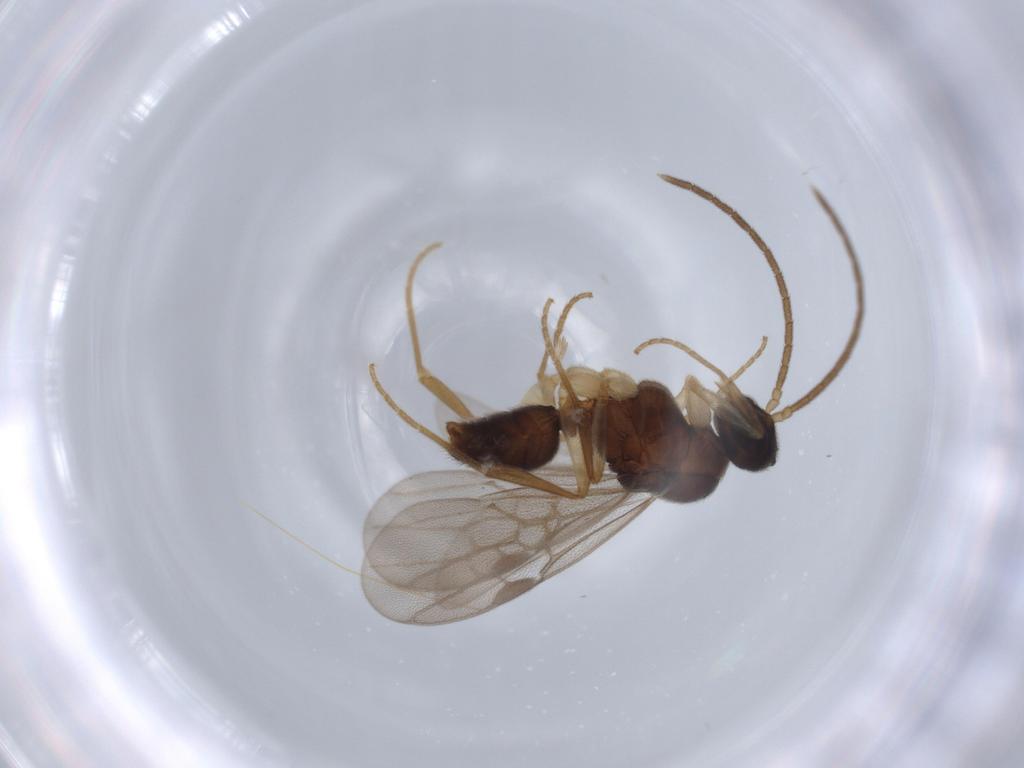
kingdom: Animalia
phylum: Arthropoda
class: Insecta
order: Hymenoptera
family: Formicidae
